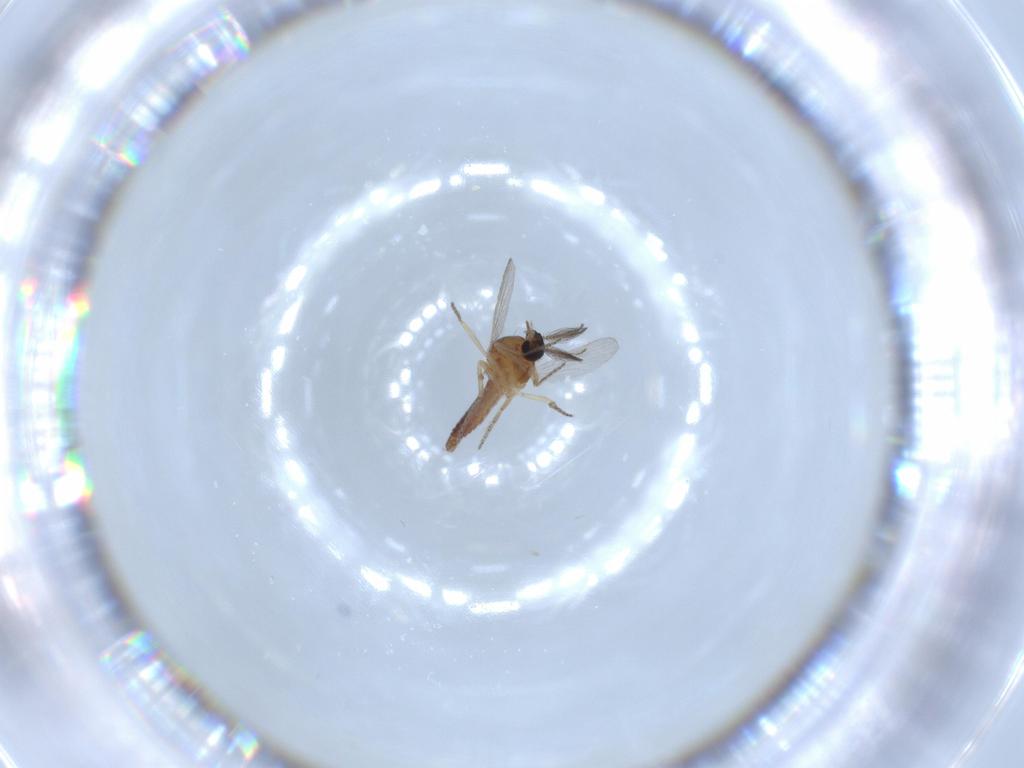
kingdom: Animalia
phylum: Arthropoda
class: Insecta
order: Diptera
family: Ceratopogonidae
